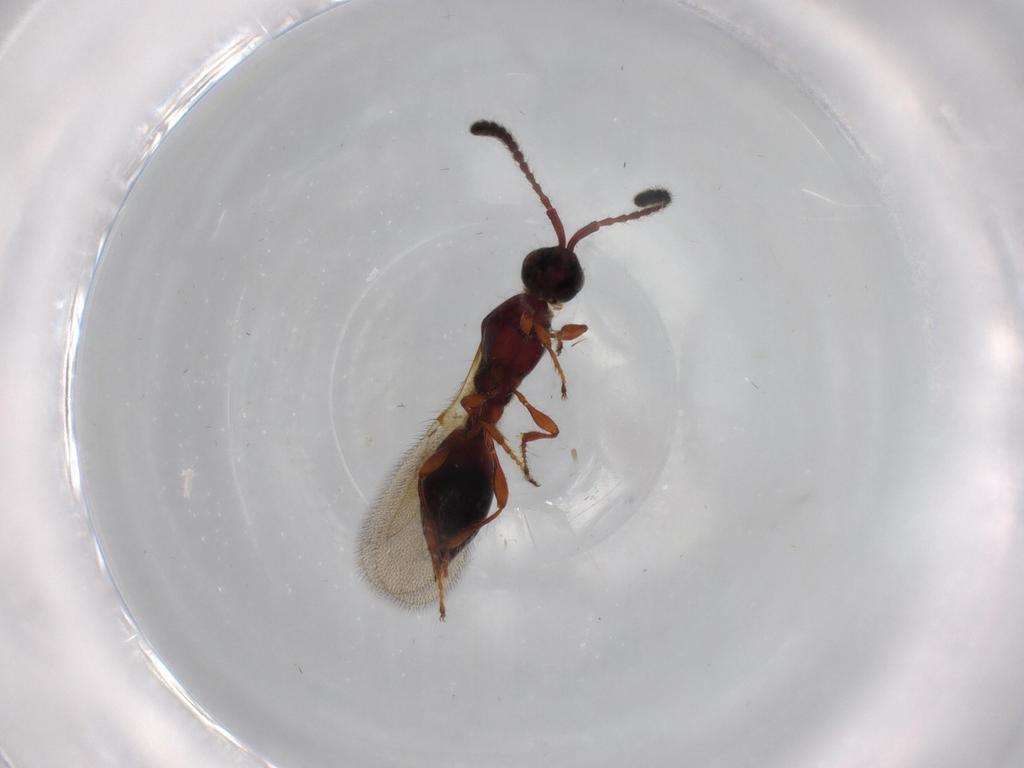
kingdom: Animalia
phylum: Arthropoda
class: Insecta
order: Hymenoptera
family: Diapriidae
